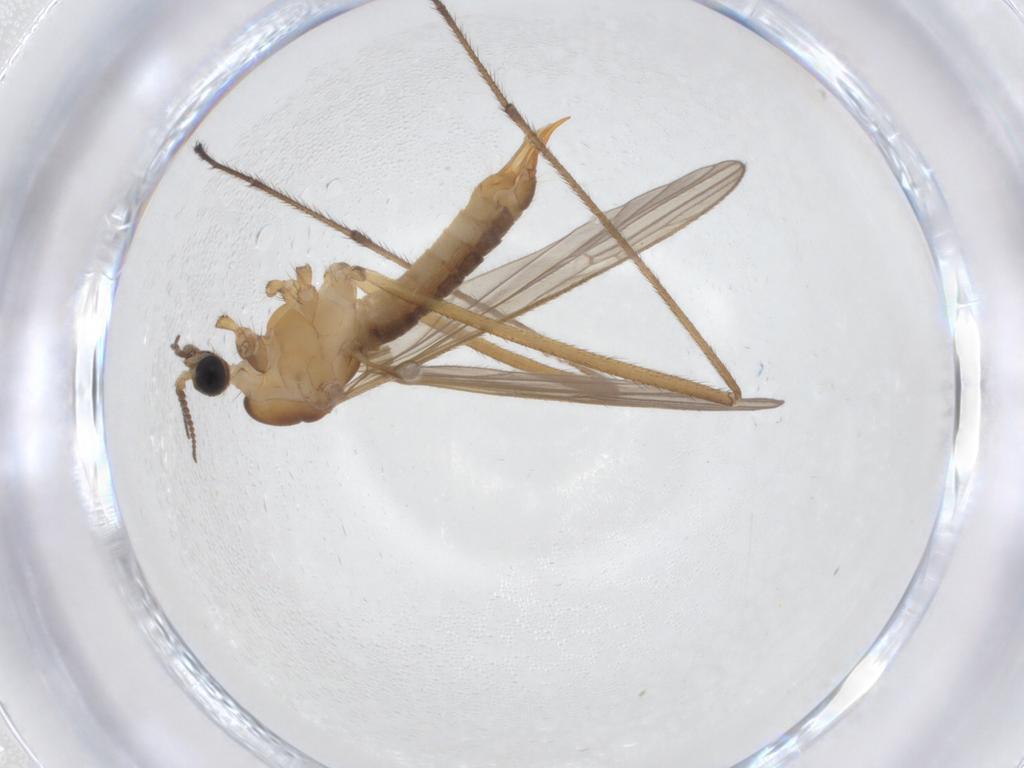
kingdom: Animalia
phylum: Arthropoda
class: Insecta
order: Diptera
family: Limoniidae
